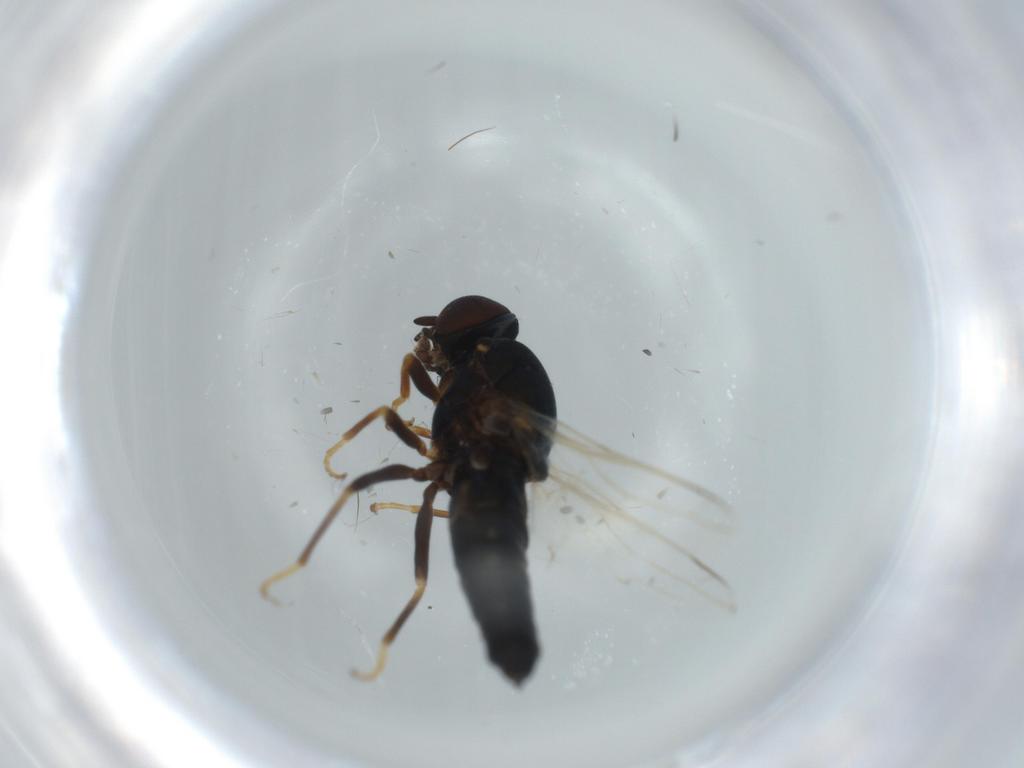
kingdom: Animalia
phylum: Arthropoda
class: Insecta
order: Diptera
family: Scenopinidae
